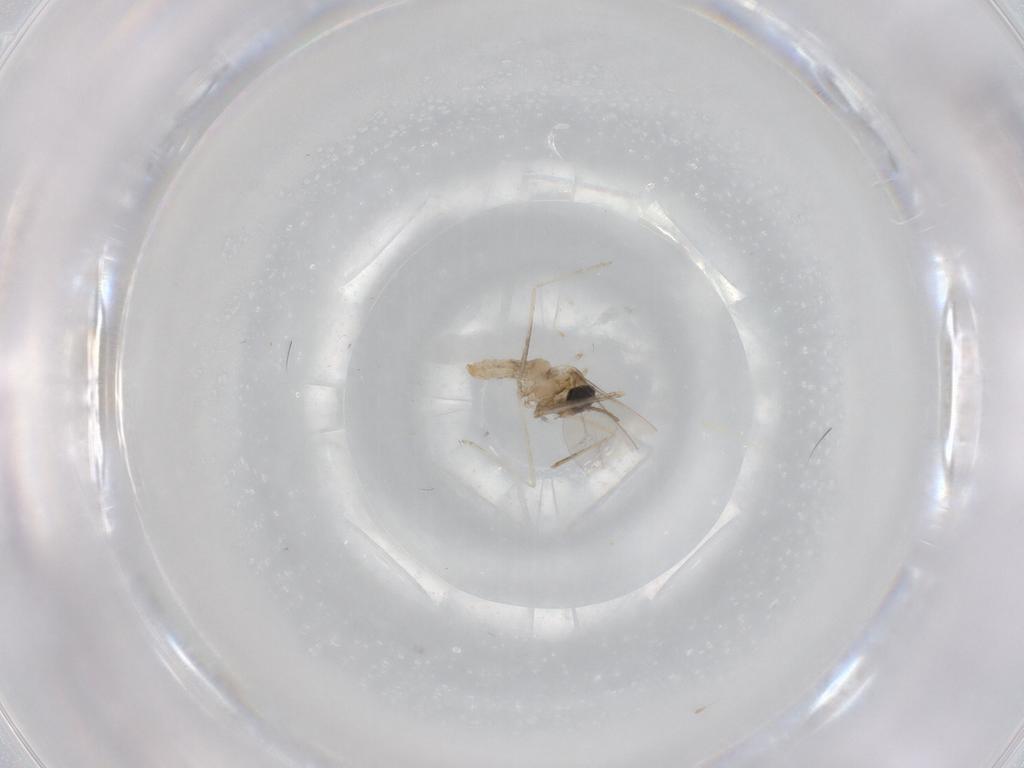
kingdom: Animalia
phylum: Arthropoda
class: Insecta
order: Diptera
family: Cecidomyiidae
